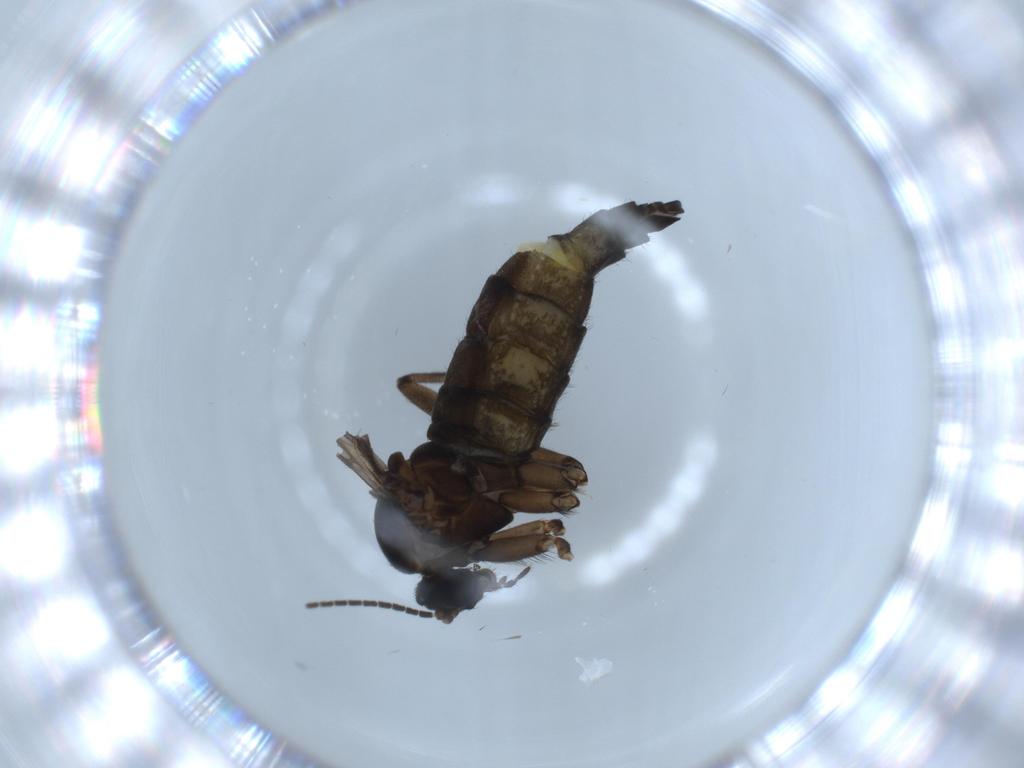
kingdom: Animalia
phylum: Arthropoda
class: Insecta
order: Diptera
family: Sciaridae
